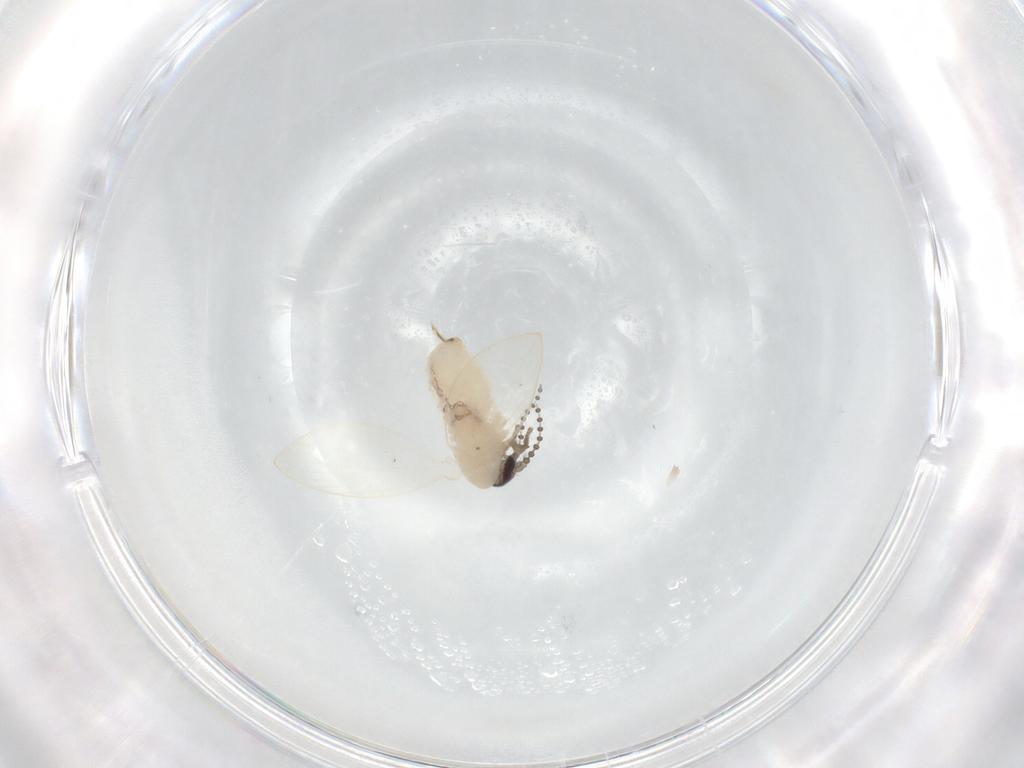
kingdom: Animalia
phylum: Arthropoda
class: Insecta
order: Diptera
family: Psychodidae
